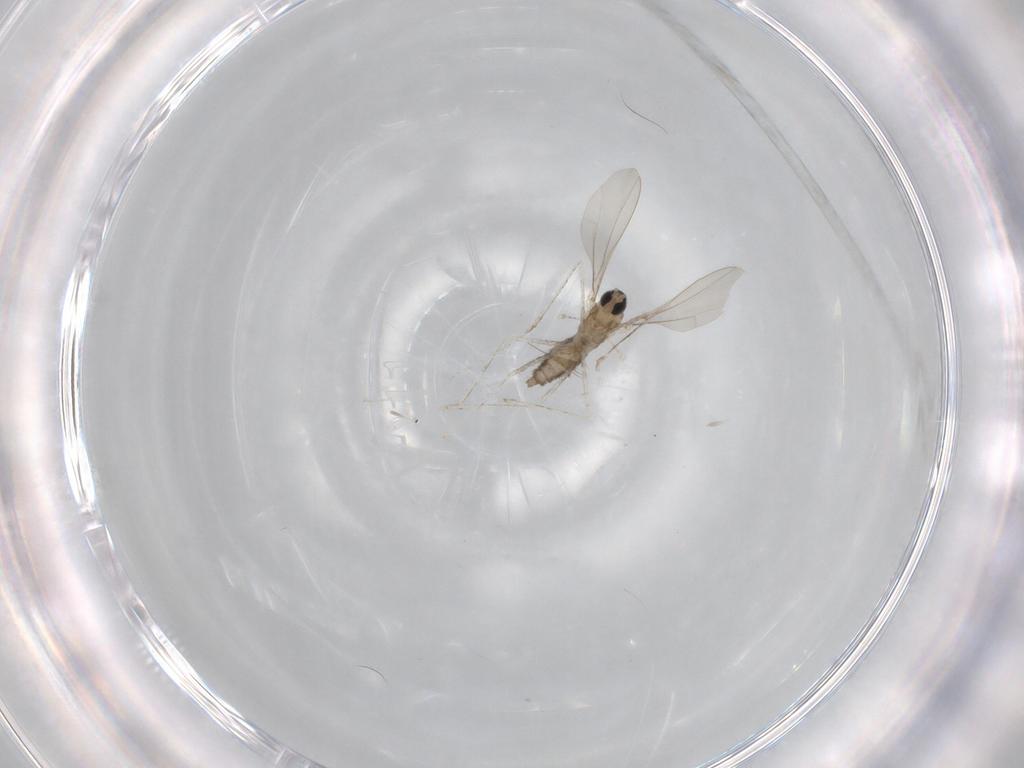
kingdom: Animalia
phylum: Arthropoda
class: Insecta
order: Diptera
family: Cecidomyiidae
